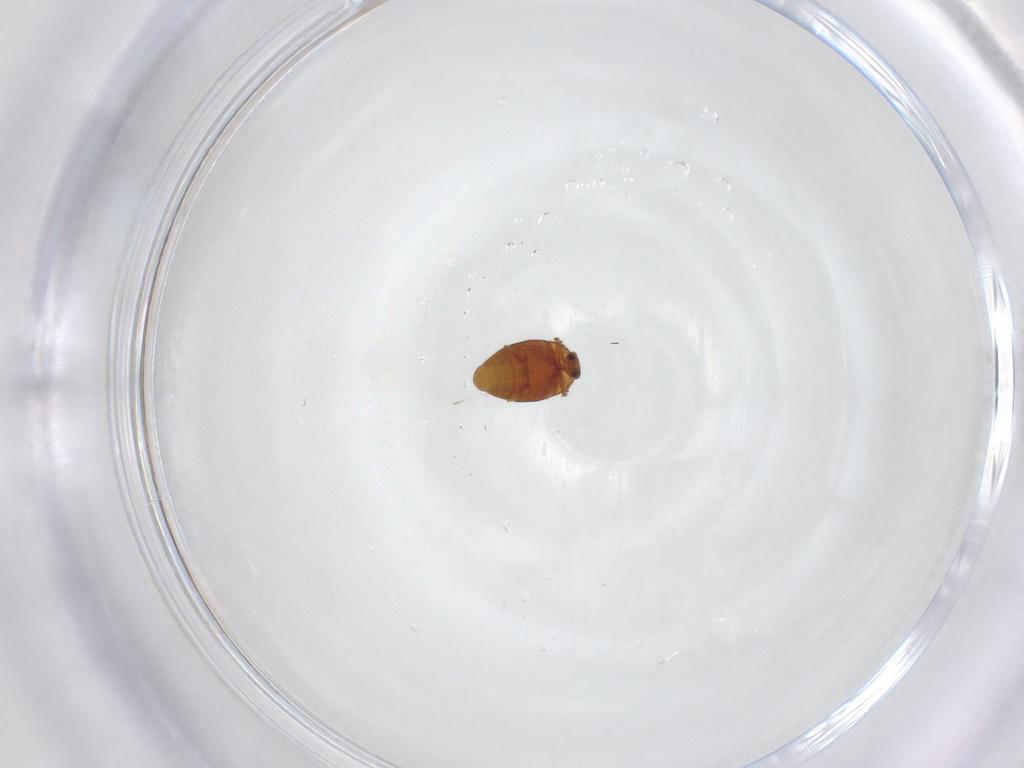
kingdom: Animalia
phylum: Arthropoda
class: Insecta
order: Coleoptera
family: Corylophidae
